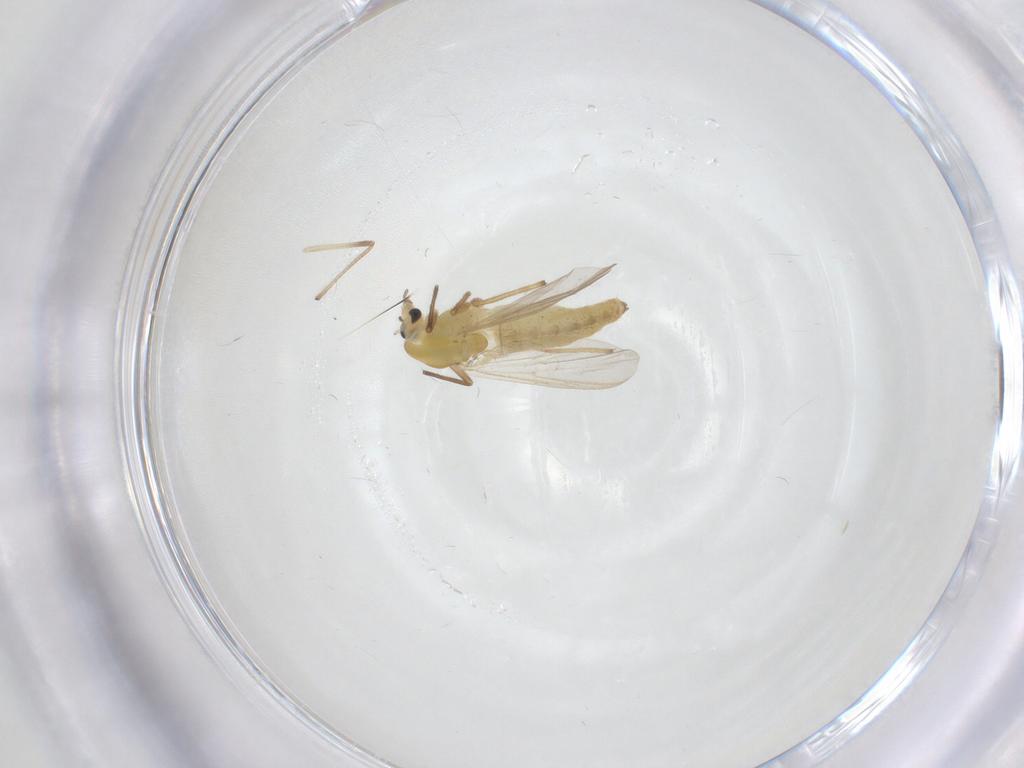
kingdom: Animalia
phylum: Arthropoda
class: Insecta
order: Diptera
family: Chironomidae
